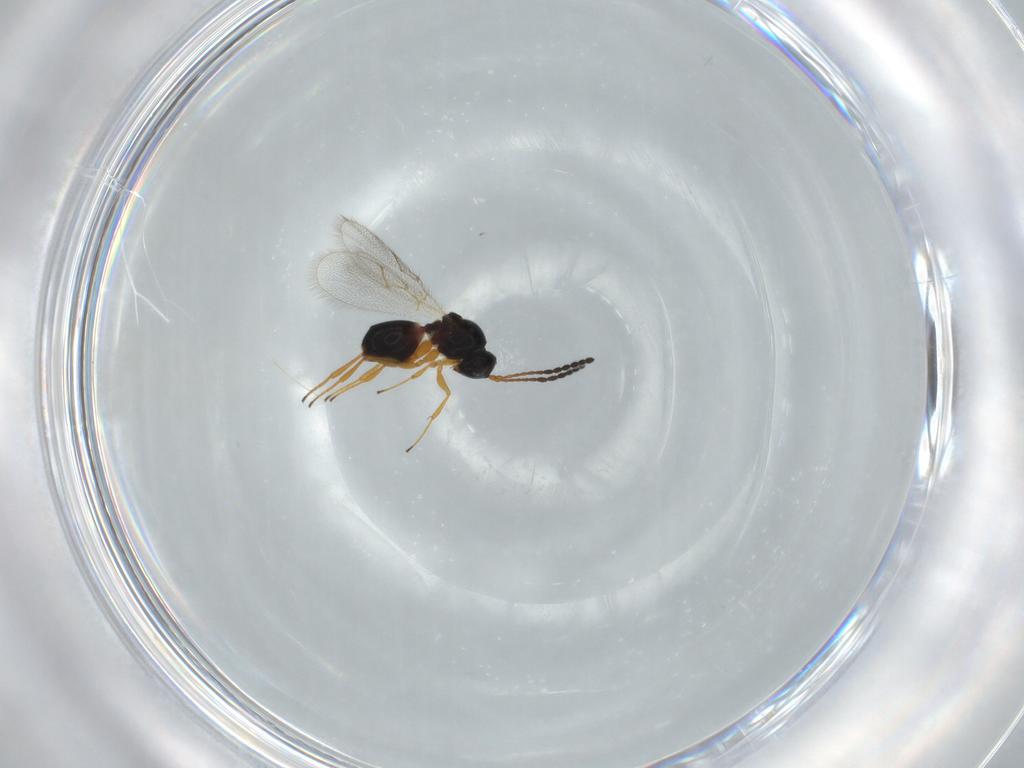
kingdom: Animalia
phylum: Arthropoda
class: Insecta
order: Hymenoptera
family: Figitidae
